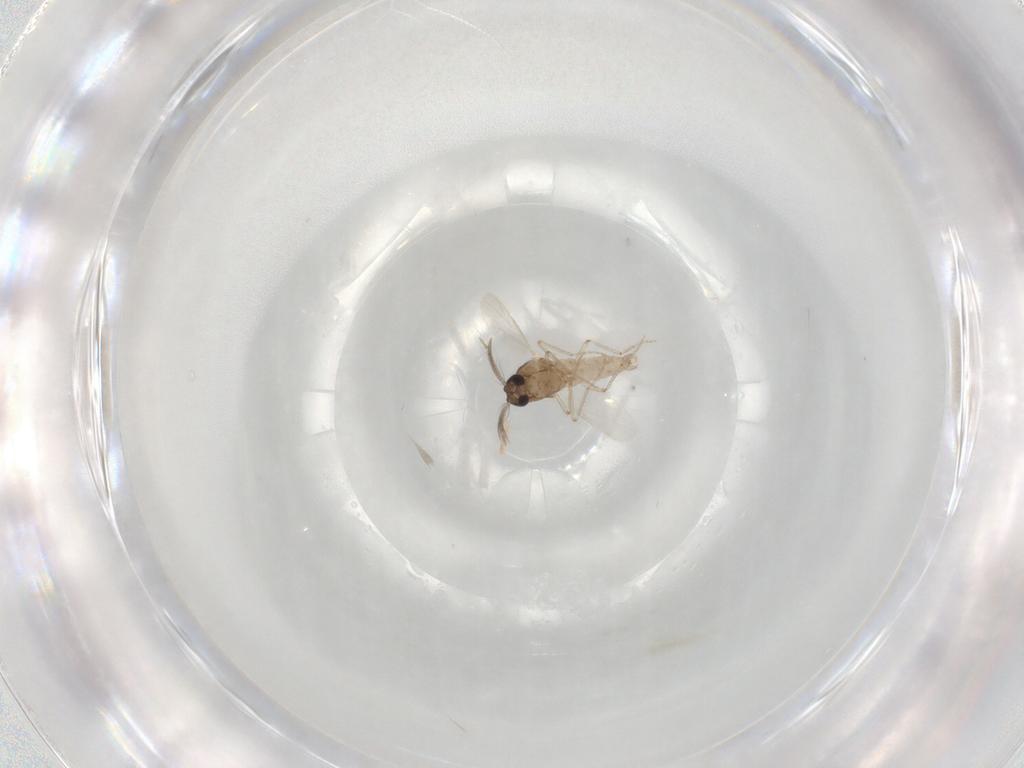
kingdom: Animalia
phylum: Arthropoda
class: Insecta
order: Diptera
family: Ceratopogonidae
